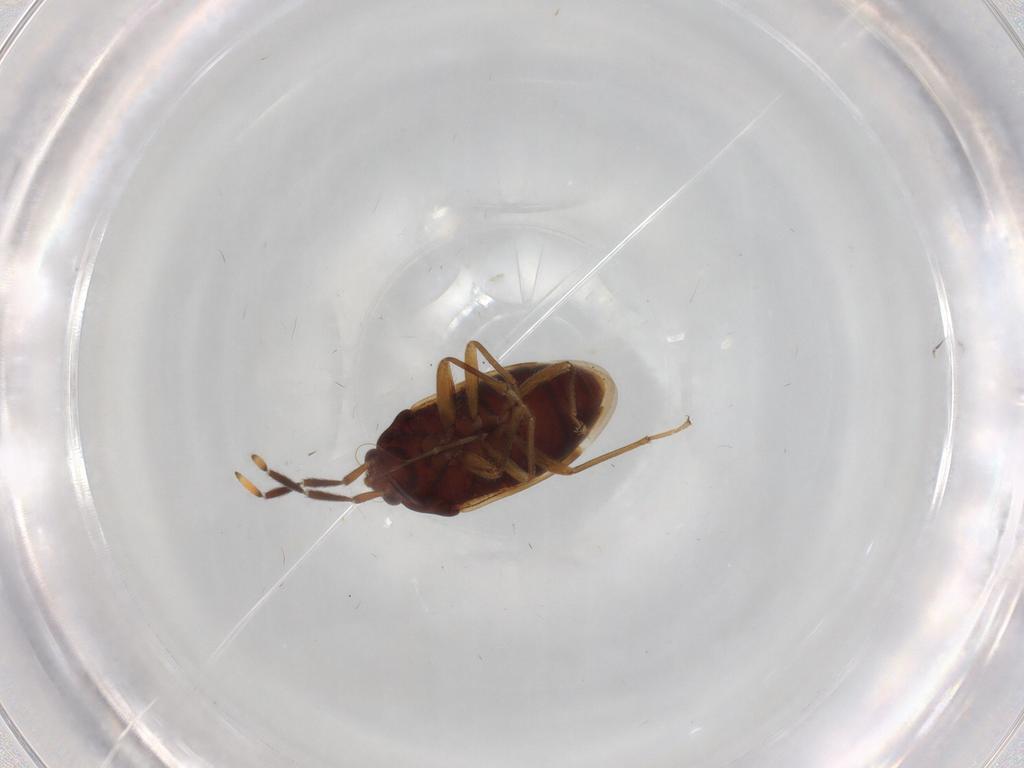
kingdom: Animalia
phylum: Arthropoda
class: Insecta
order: Hemiptera
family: Rhyparochromidae
